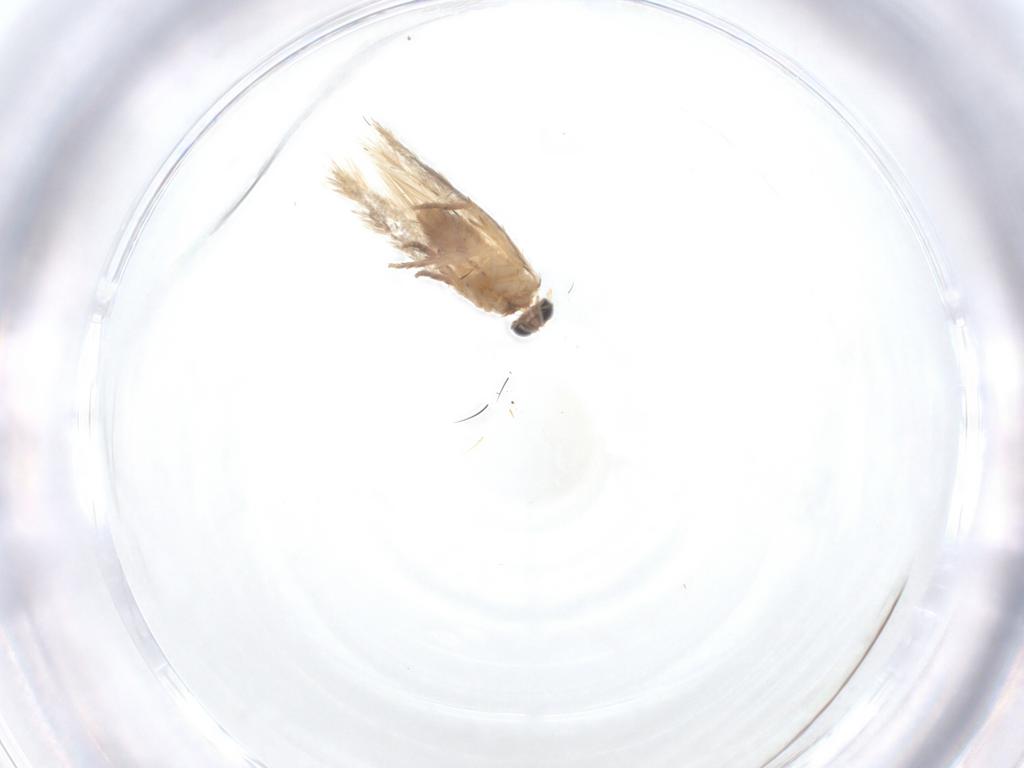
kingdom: Animalia
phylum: Arthropoda
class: Insecta
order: Lepidoptera
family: Nepticulidae
